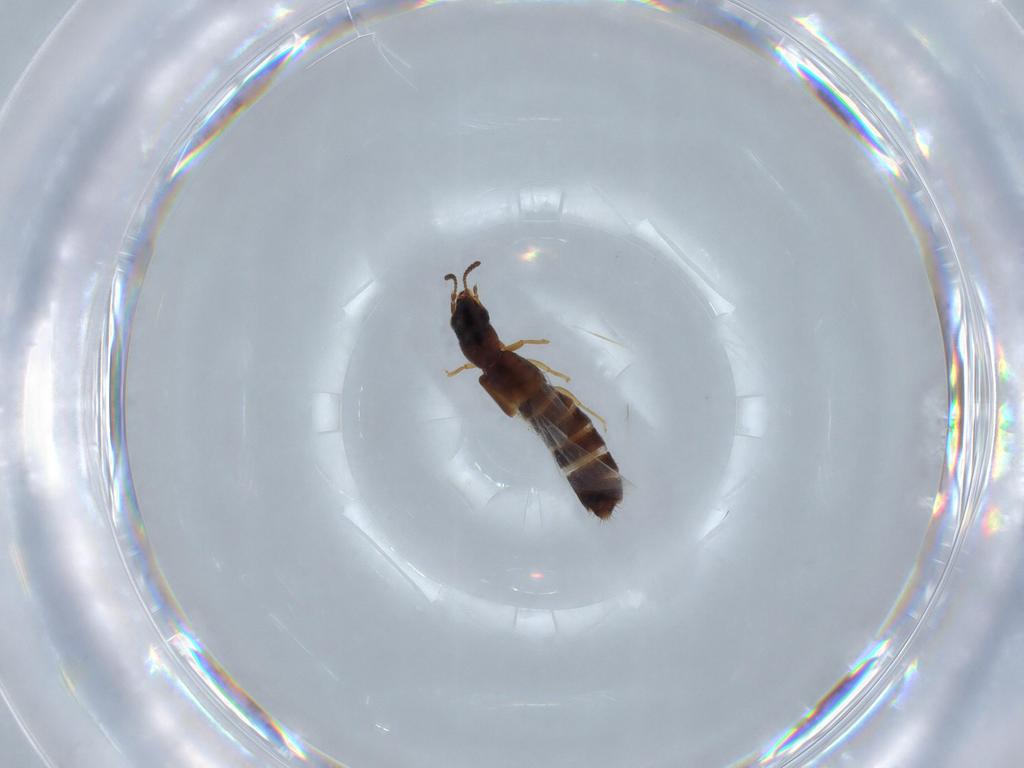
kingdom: Animalia
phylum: Arthropoda
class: Insecta
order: Coleoptera
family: Staphylinidae
